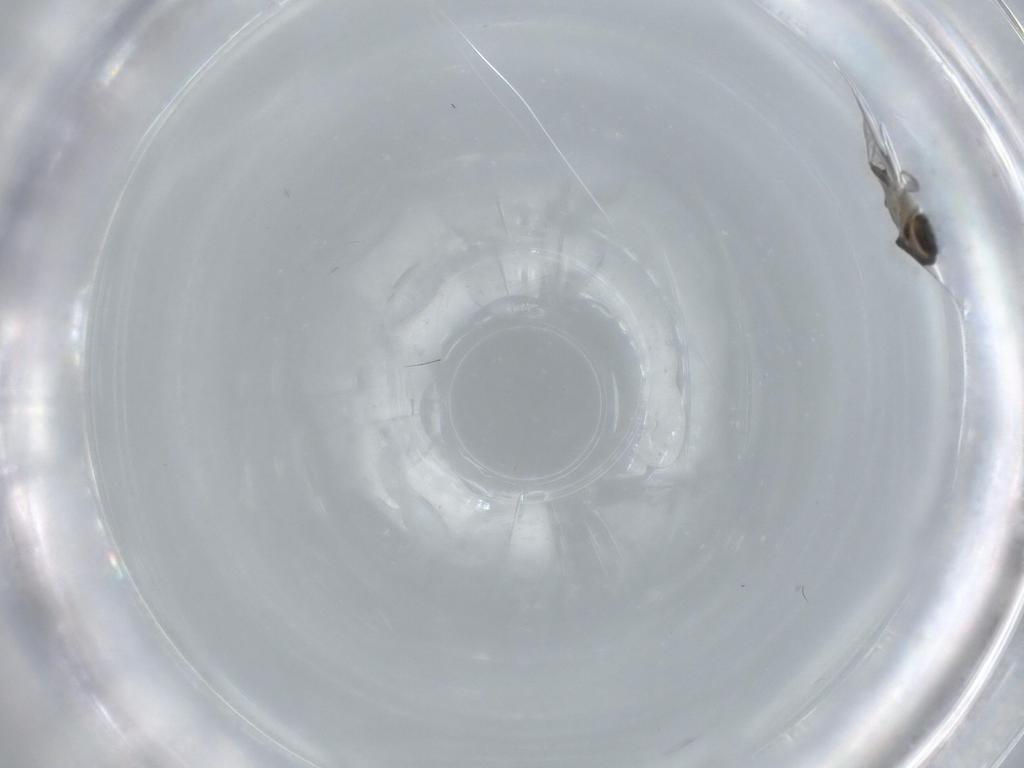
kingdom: Animalia
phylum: Arthropoda
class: Insecta
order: Diptera
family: Phoridae
